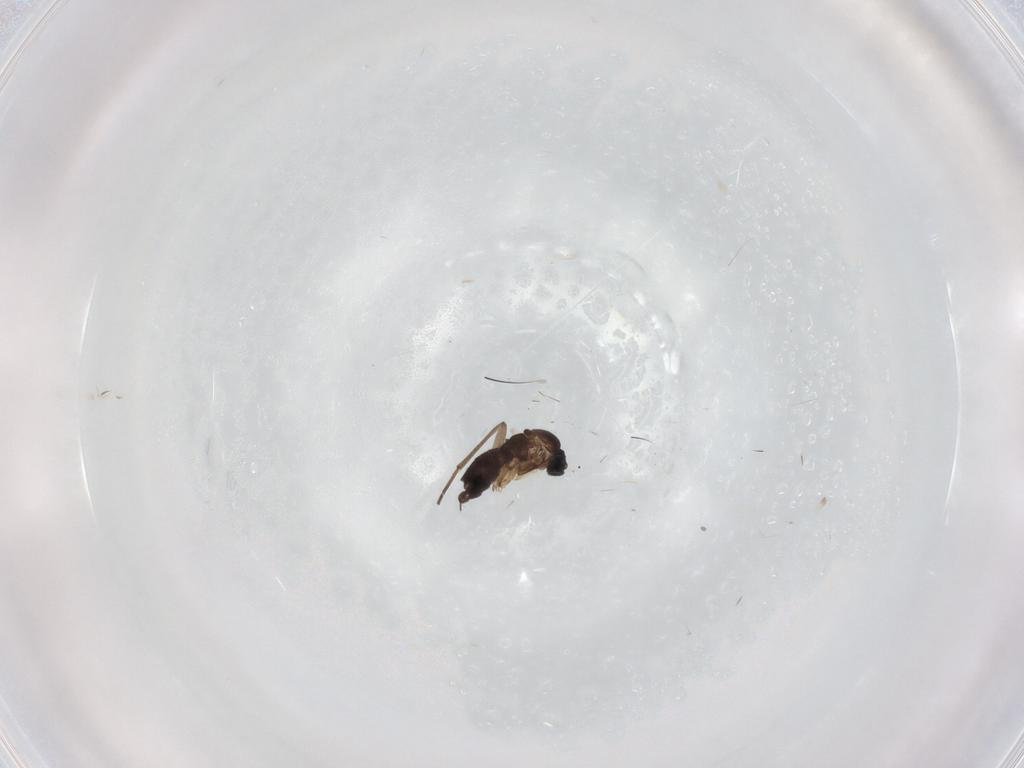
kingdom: Animalia
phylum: Arthropoda
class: Insecta
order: Diptera
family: Sciaridae
